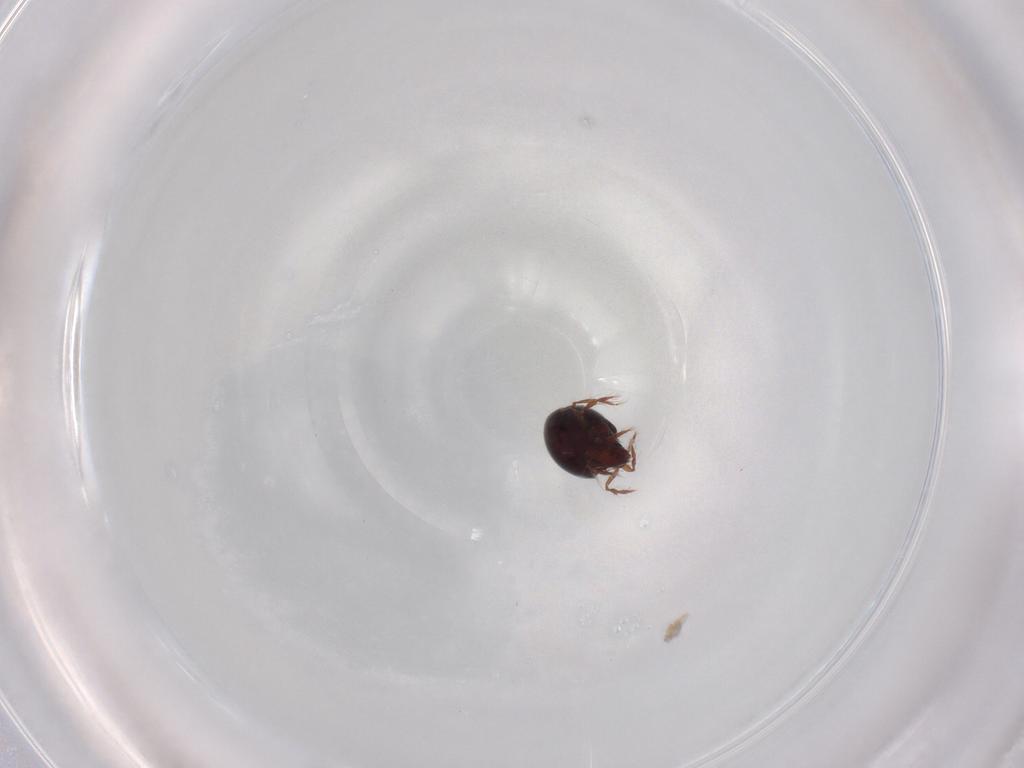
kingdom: Animalia
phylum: Arthropoda
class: Arachnida
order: Sarcoptiformes
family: Ceratoppiidae
